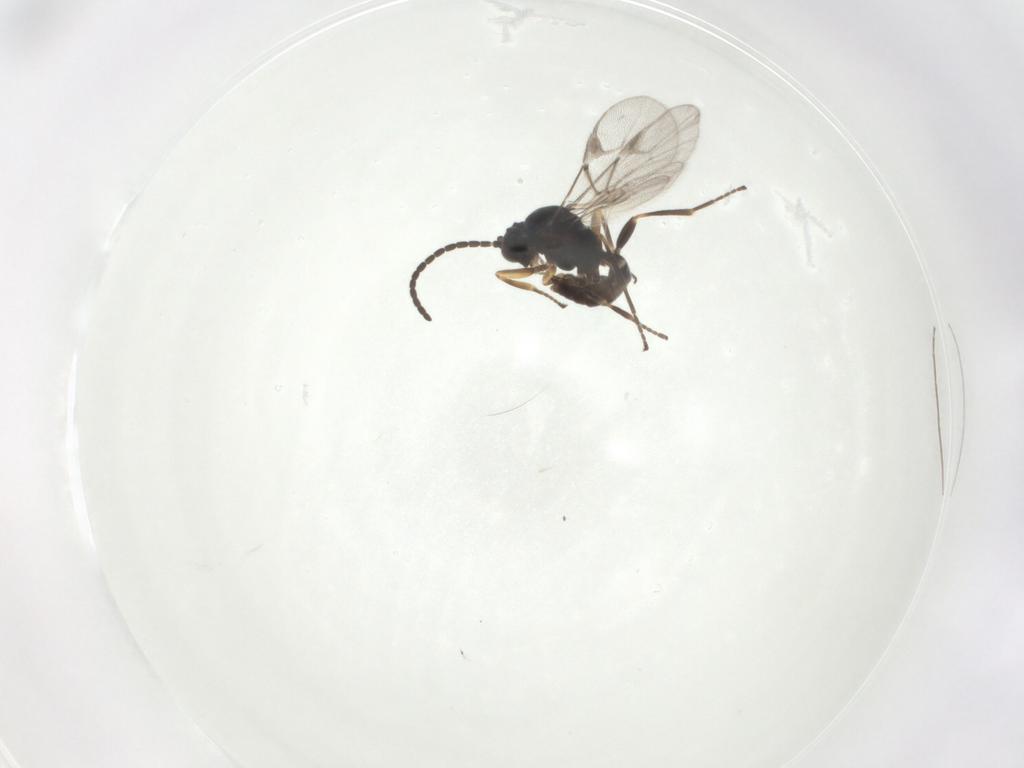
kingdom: Animalia
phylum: Arthropoda
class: Insecta
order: Hymenoptera
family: Braconidae
